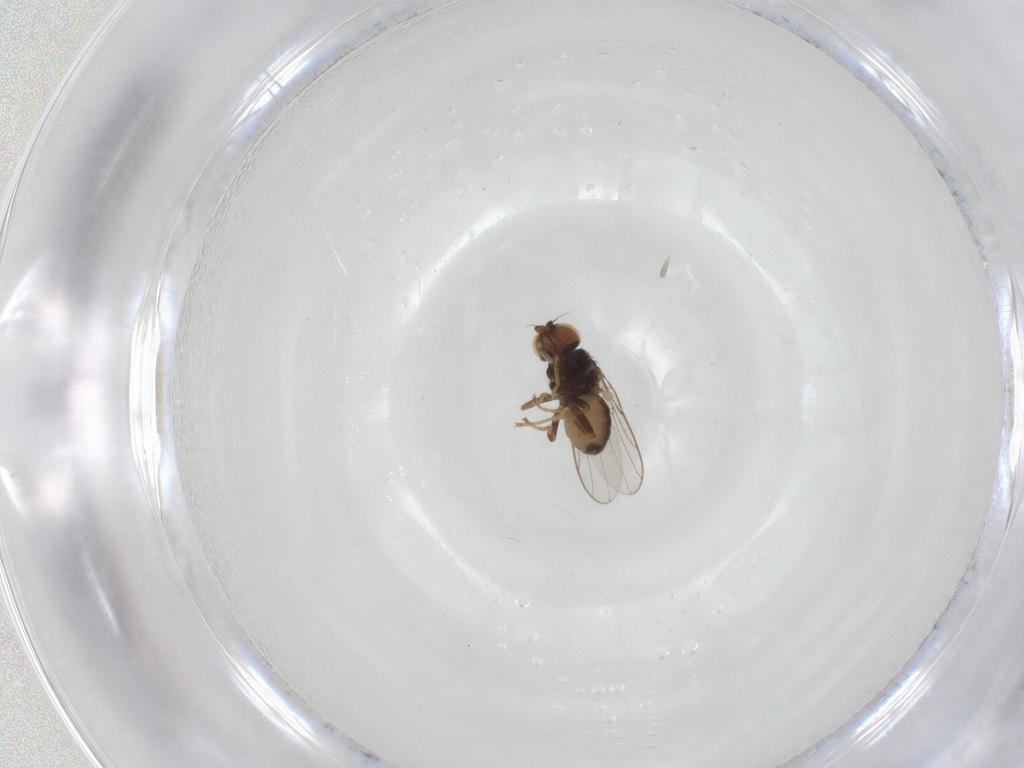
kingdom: Animalia
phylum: Arthropoda
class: Insecta
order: Diptera
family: Chloropidae
